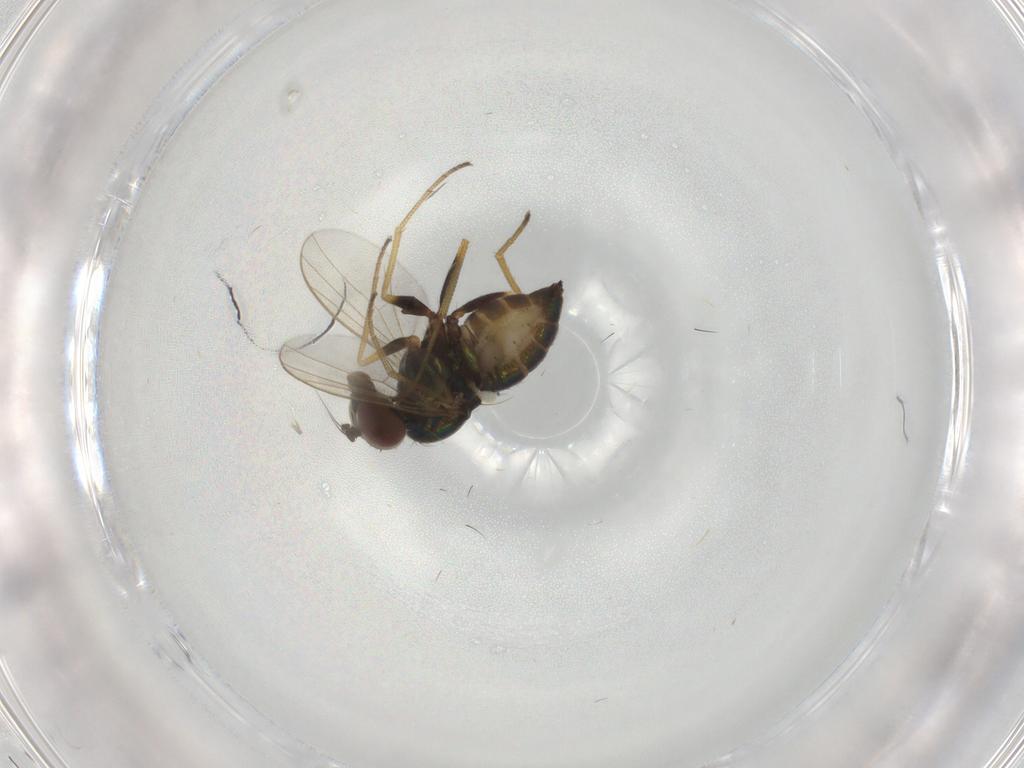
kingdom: Animalia
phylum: Arthropoda
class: Insecta
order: Diptera
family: Dolichopodidae
